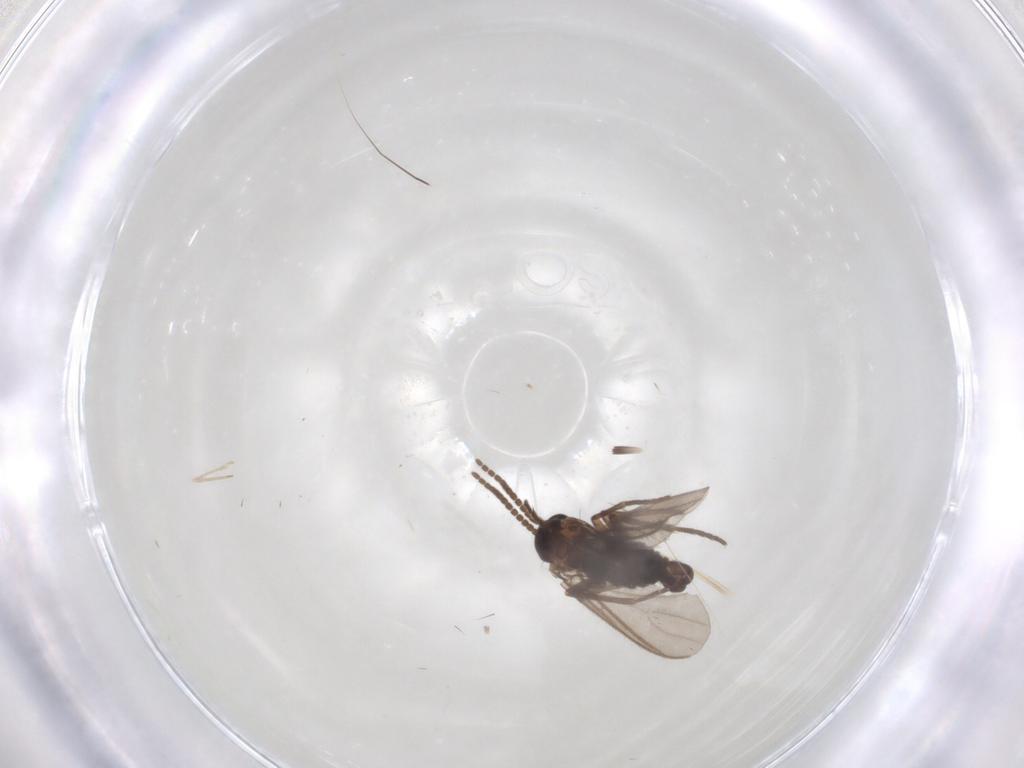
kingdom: Animalia
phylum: Arthropoda
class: Insecta
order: Diptera
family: Sciaridae
